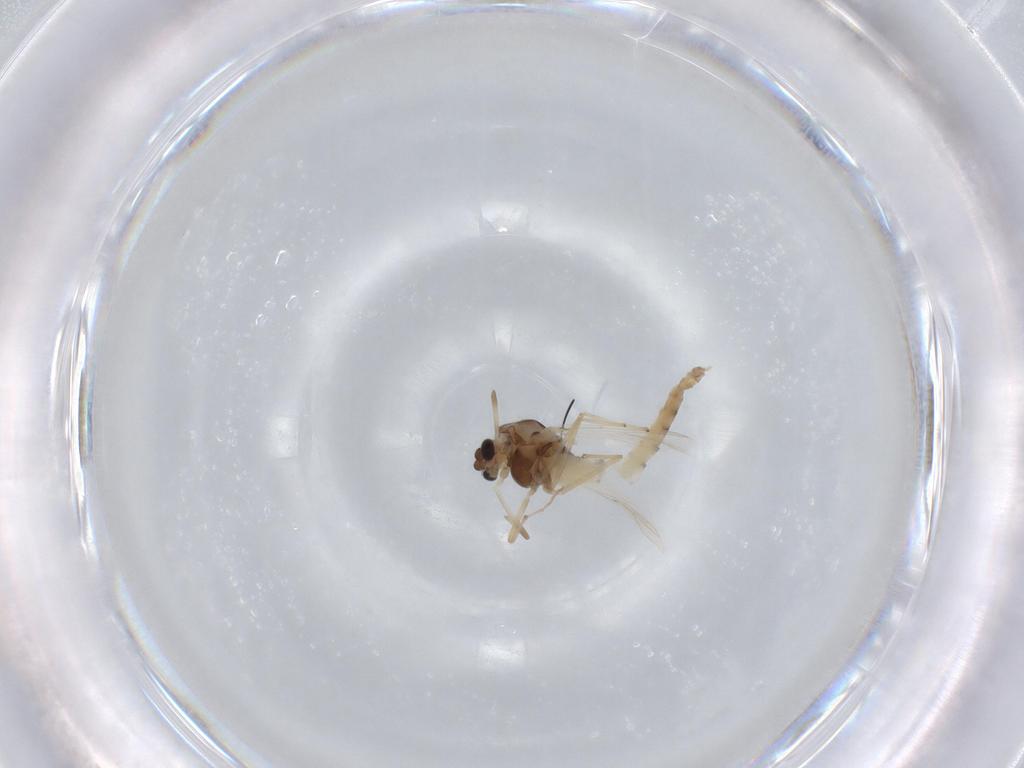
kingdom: Animalia
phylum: Arthropoda
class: Insecta
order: Diptera
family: Chironomidae
